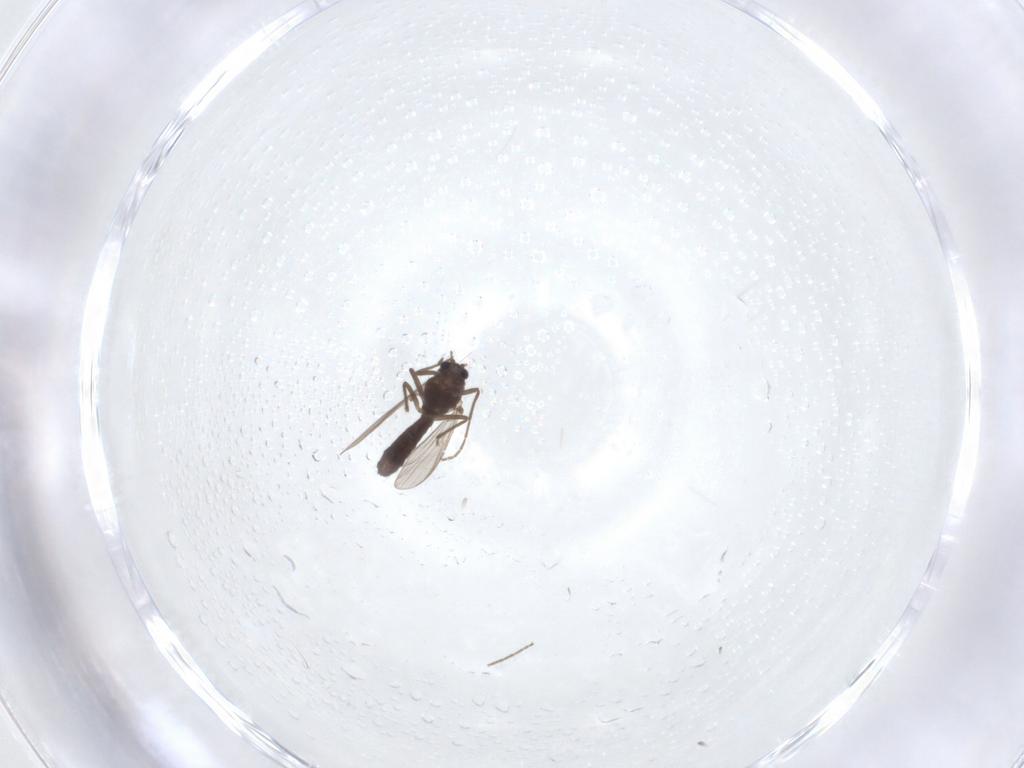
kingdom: Animalia
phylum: Arthropoda
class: Insecta
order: Diptera
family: Chironomidae
